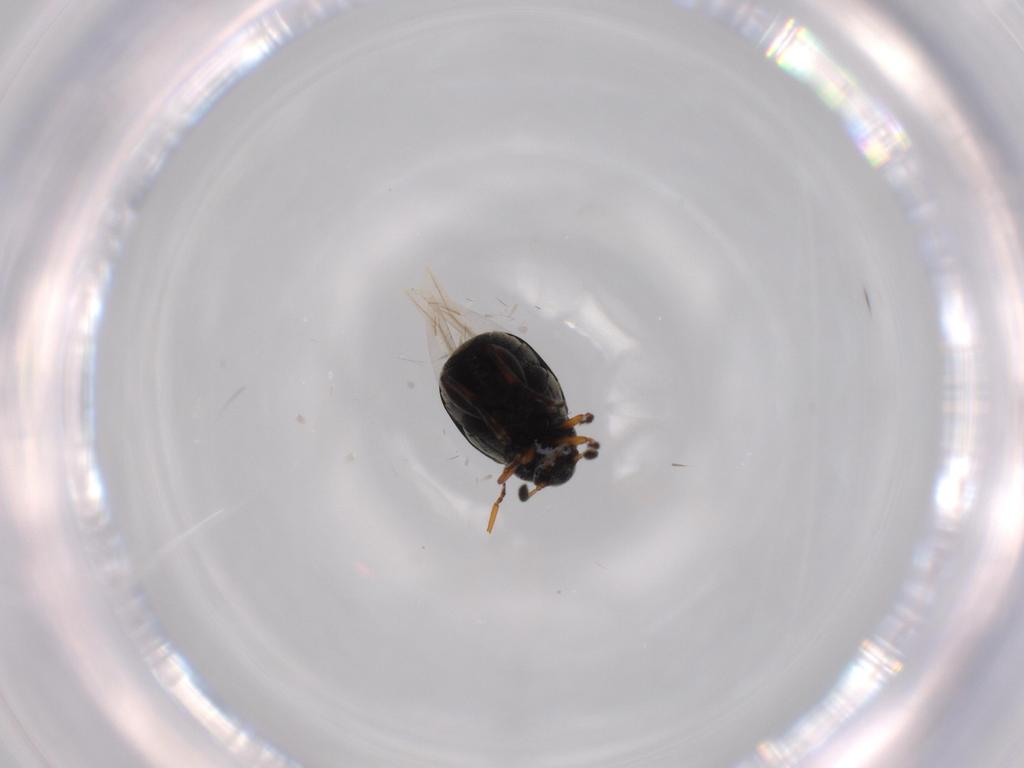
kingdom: Animalia
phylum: Arthropoda
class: Insecta
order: Coleoptera
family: Chrysomelidae
